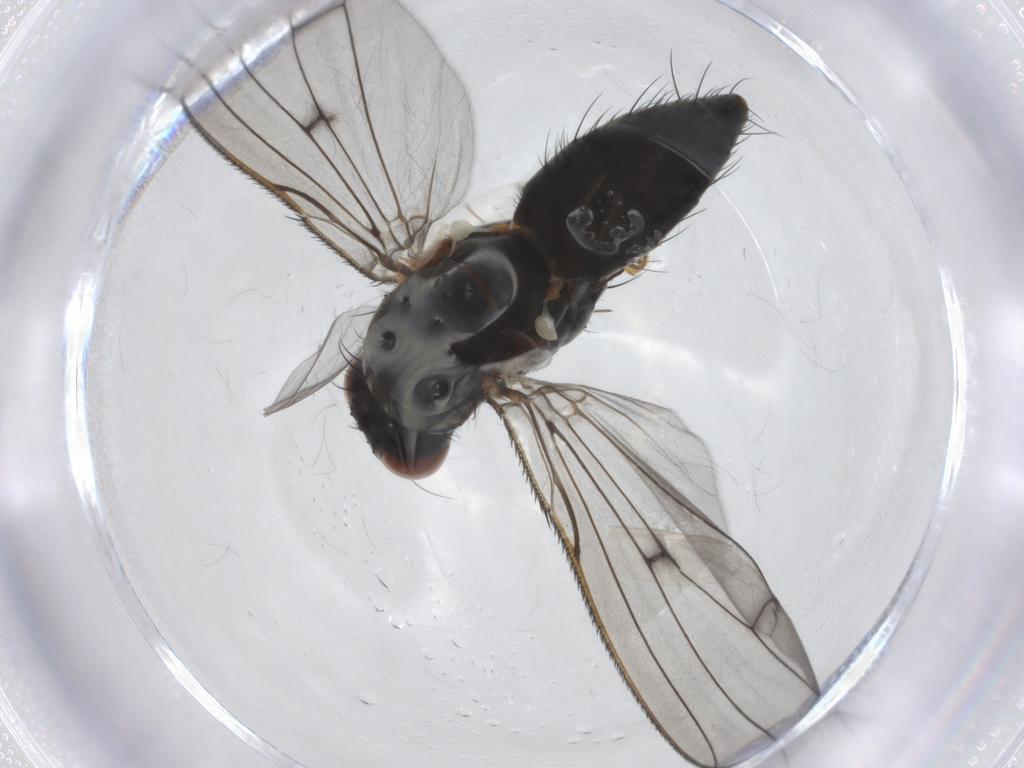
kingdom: Animalia
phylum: Arthropoda
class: Insecta
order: Diptera
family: Anthomyiidae
